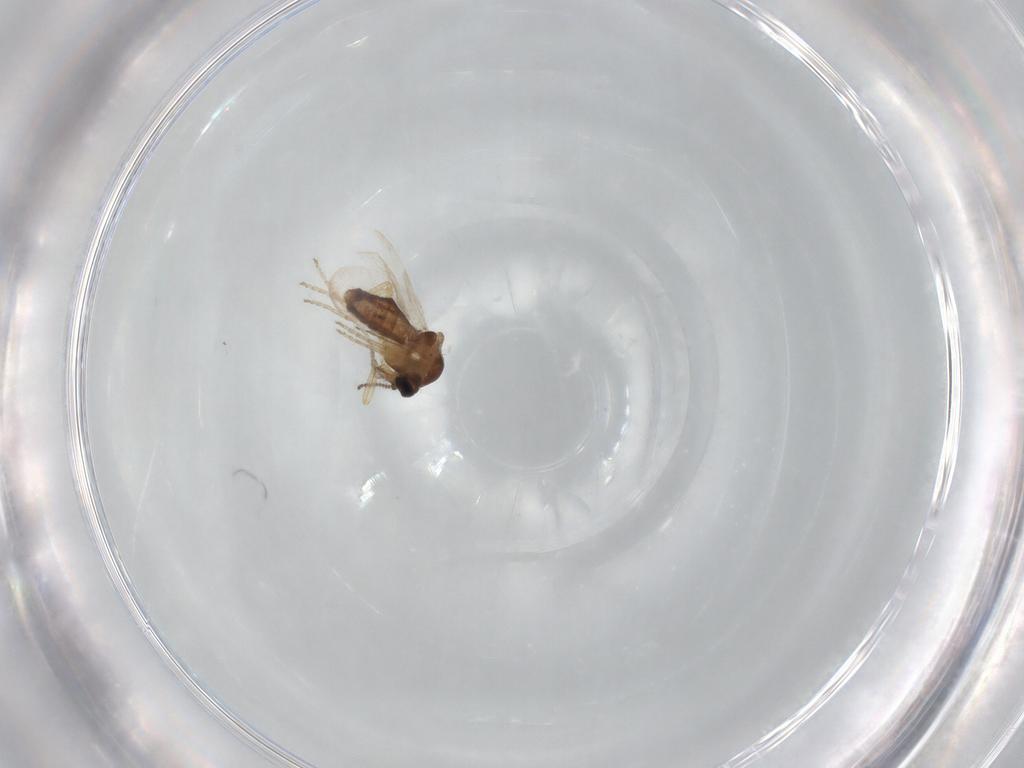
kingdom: Animalia
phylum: Arthropoda
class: Insecta
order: Diptera
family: Ceratopogonidae
